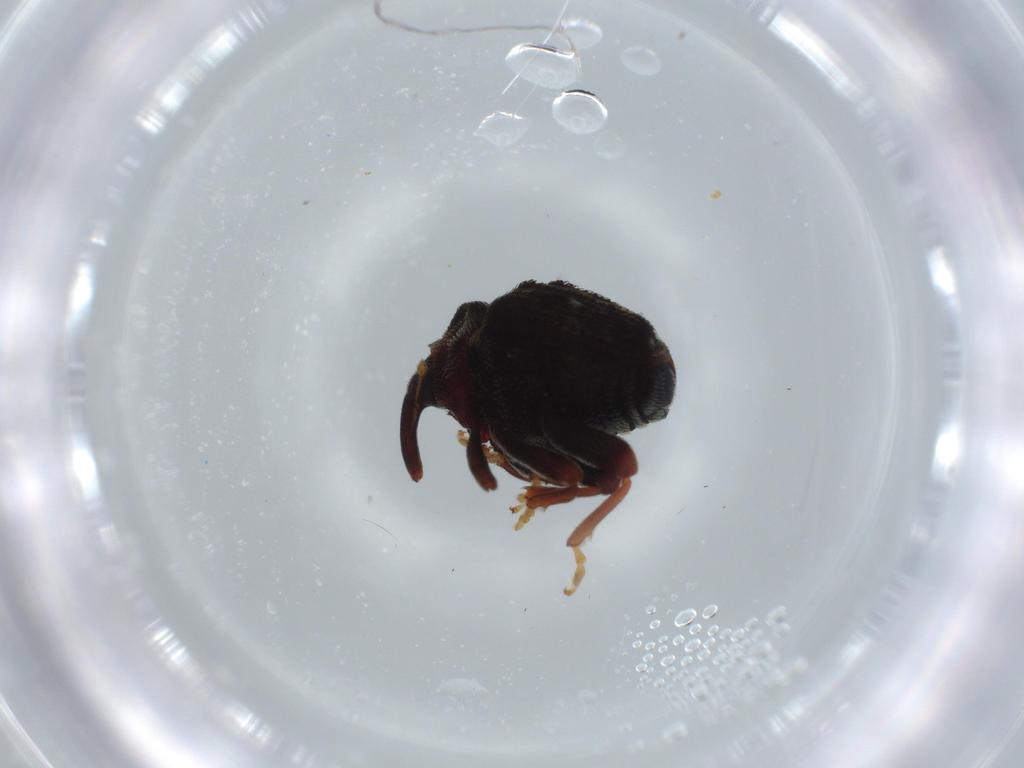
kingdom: Animalia
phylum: Arthropoda
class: Insecta
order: Coleoptera
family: Curculionidae
